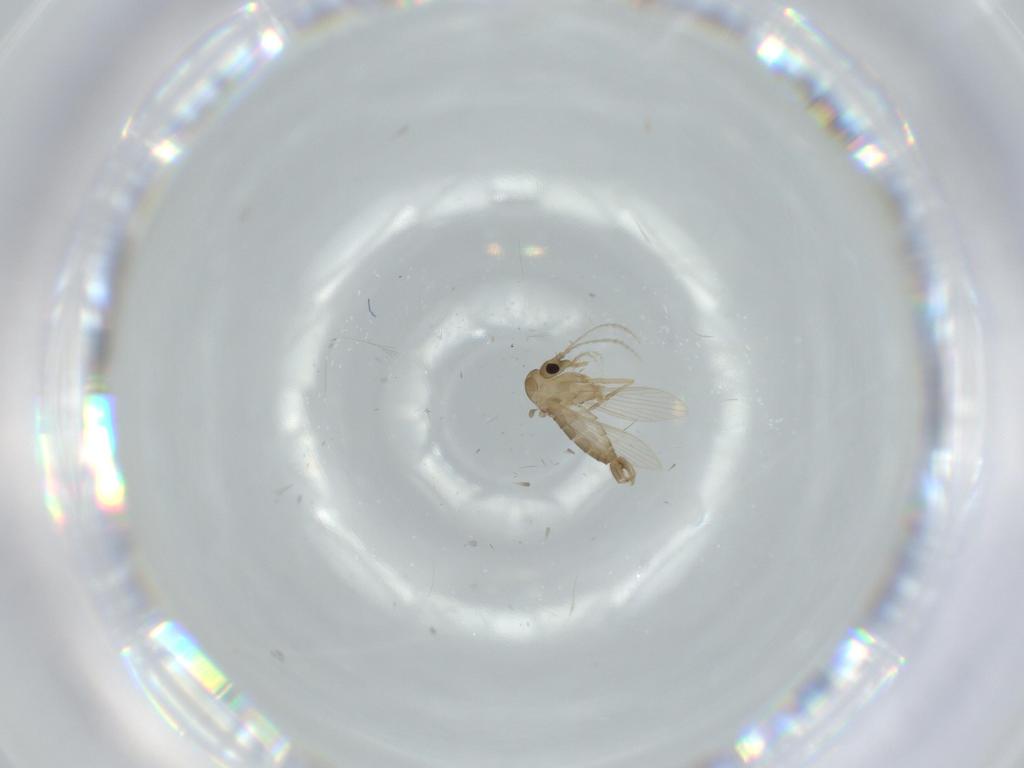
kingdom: Animalia
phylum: Arthropoda
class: Insecta
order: Diptera
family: Psychodidae
